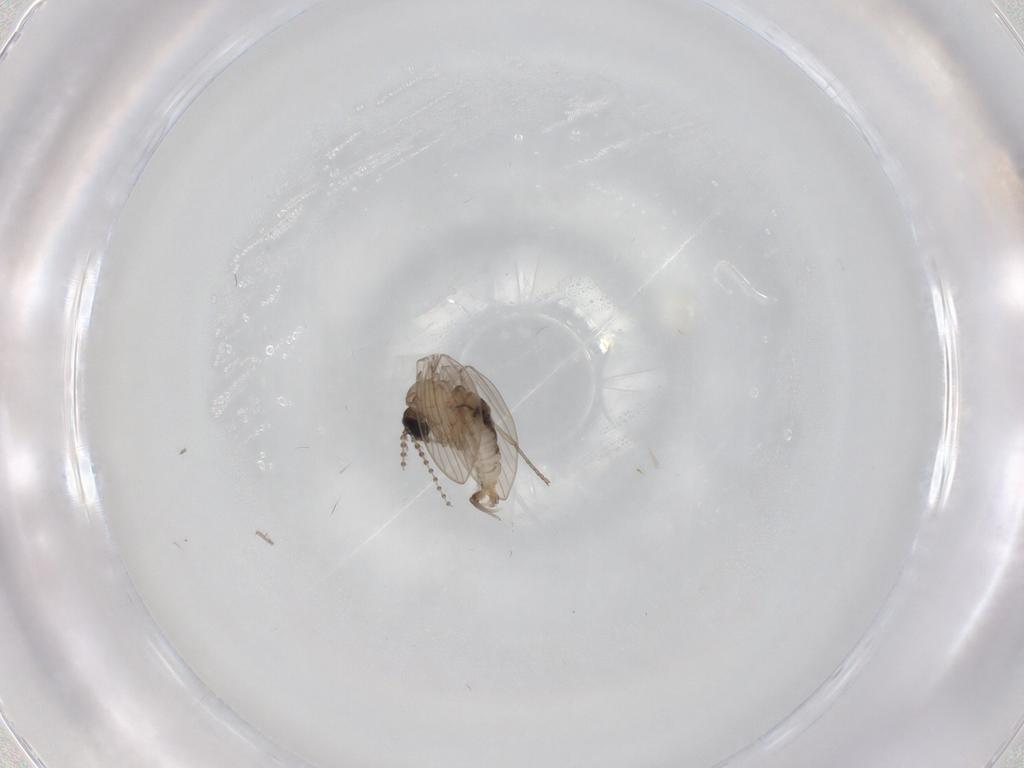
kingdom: Animalia
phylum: Arthropoda
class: Insecta
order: Diptera
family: Psychodidae
